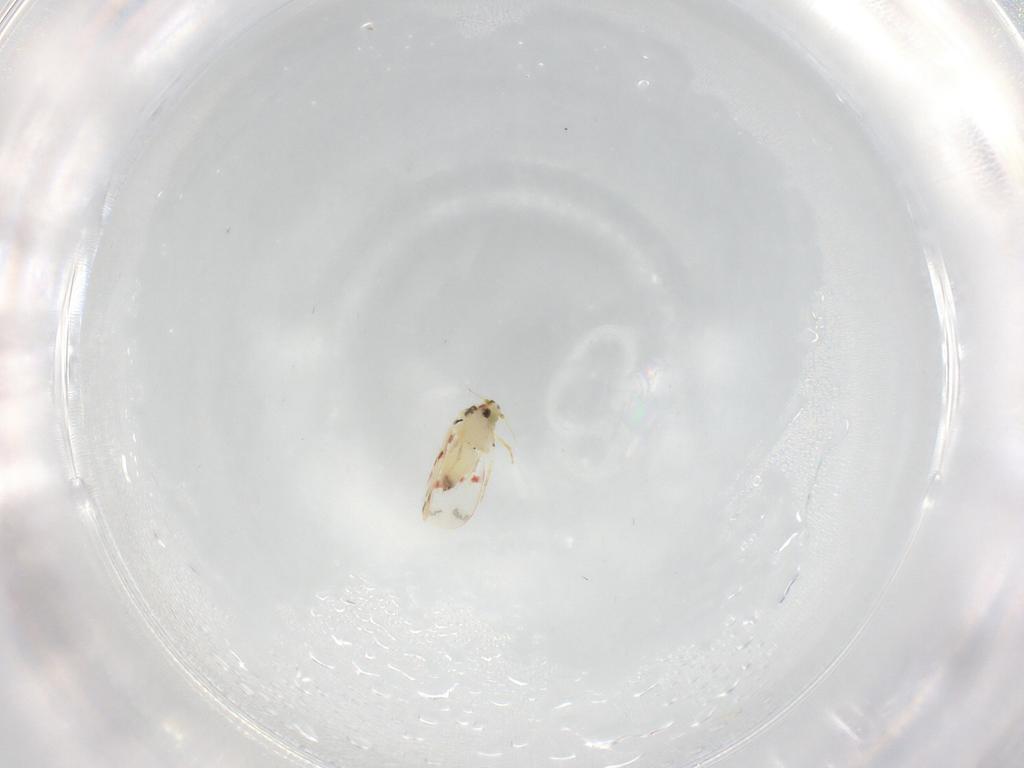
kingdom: Animalia
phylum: Arthropoda
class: Insecta
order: Hemiptera
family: Aleyrodidae
